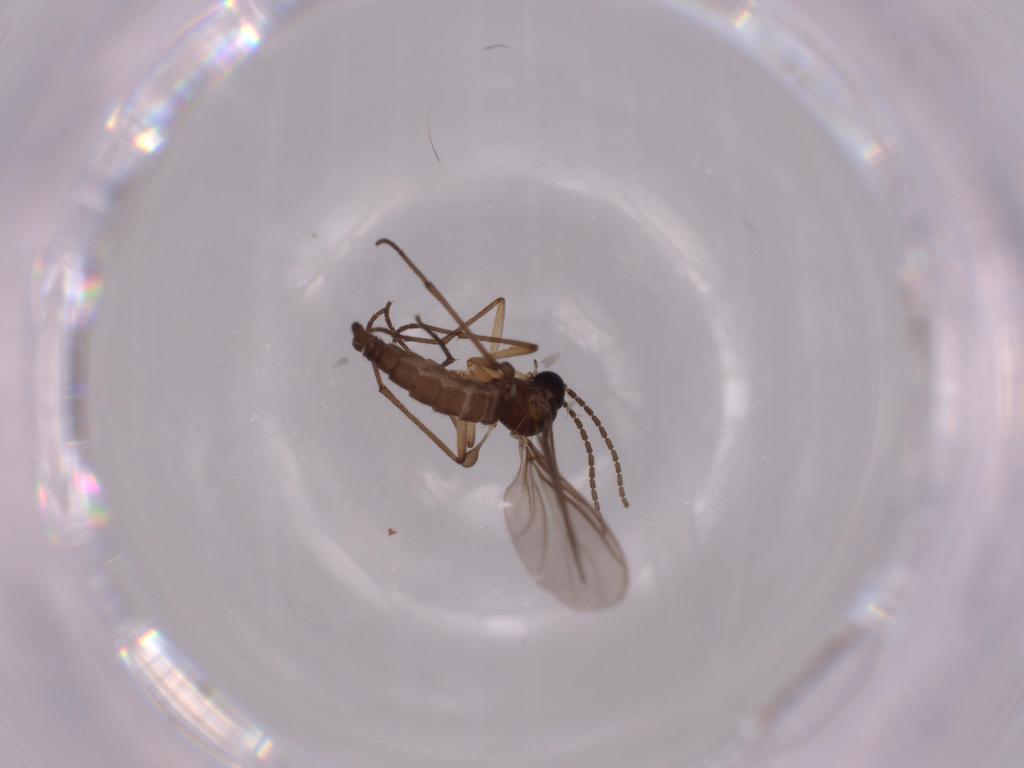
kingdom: Animalia
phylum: Arthropoda
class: Insecta
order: Diptera
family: Sciaridae
